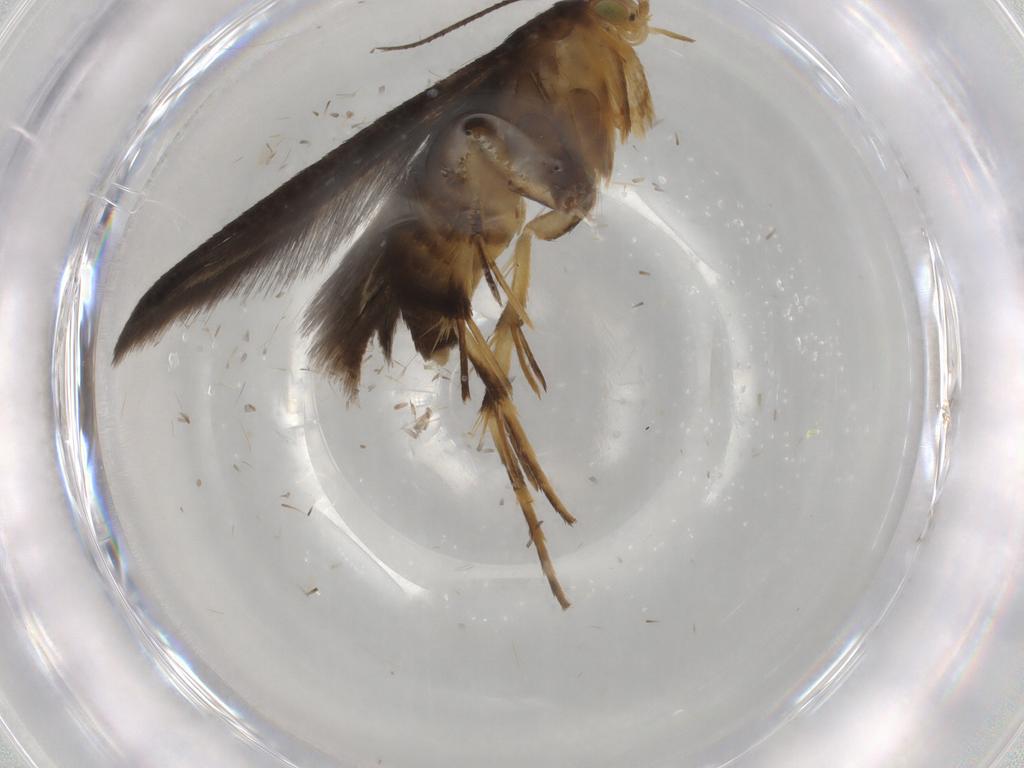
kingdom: Animalia
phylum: Arthropoda
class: Insecta
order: Lepidoptera
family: Oecophoridae
